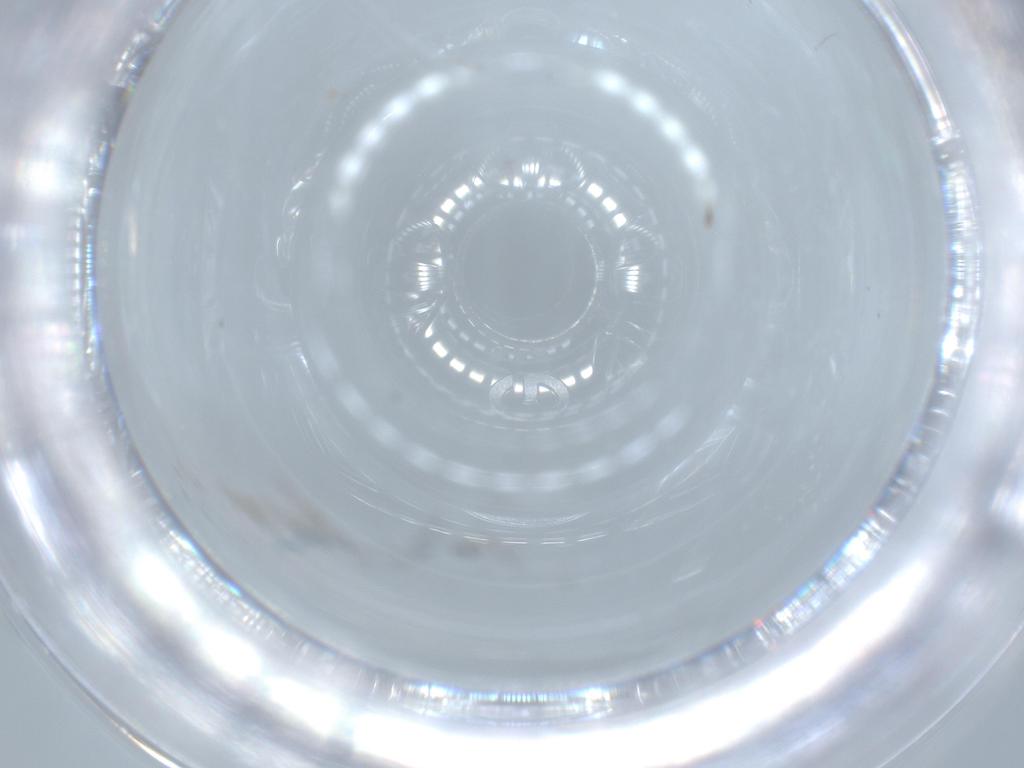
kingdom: Animalia
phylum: Arthropoda
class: Insecta
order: Diptera
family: Cecidomyiidae
